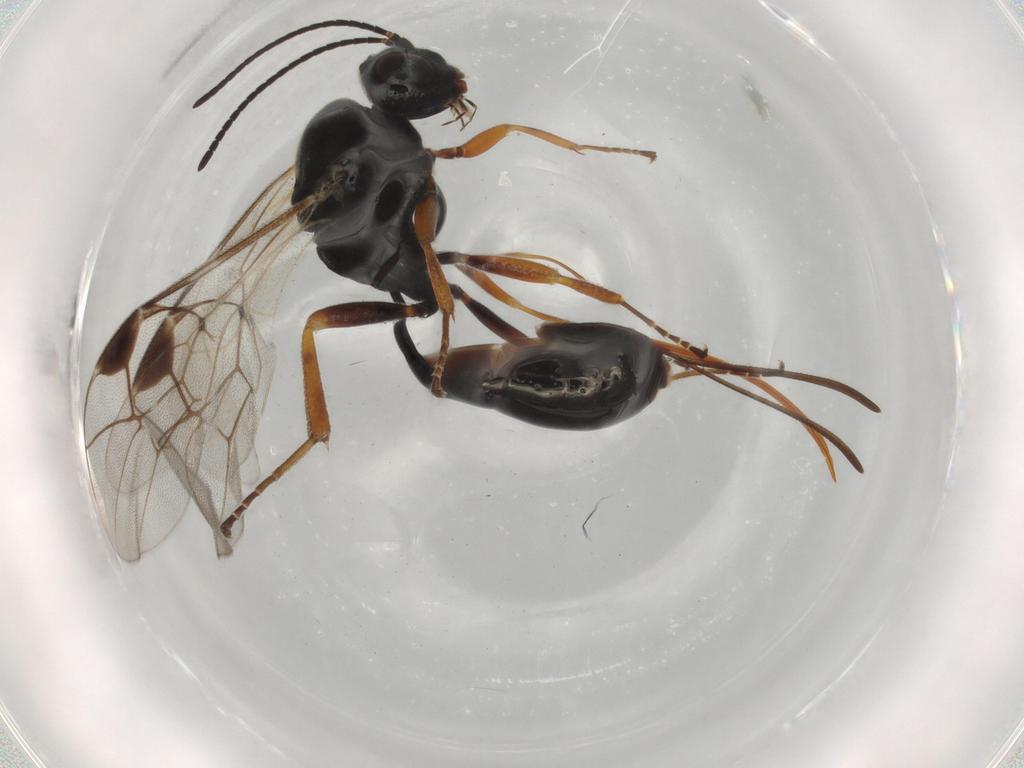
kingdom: Animalia
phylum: Arthropoda
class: Insecta
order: Hymenoptera
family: Ichneumonidae
